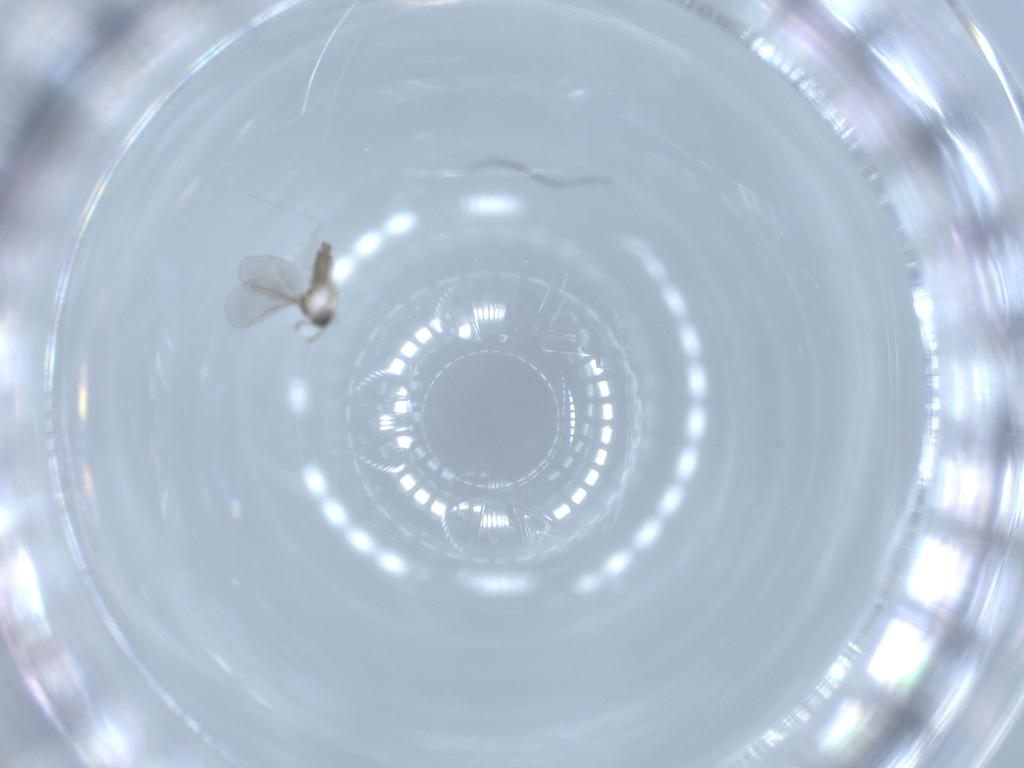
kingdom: Animalia
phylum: Arthropoda
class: Insecta
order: Diptera
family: Cecidomyiidae
